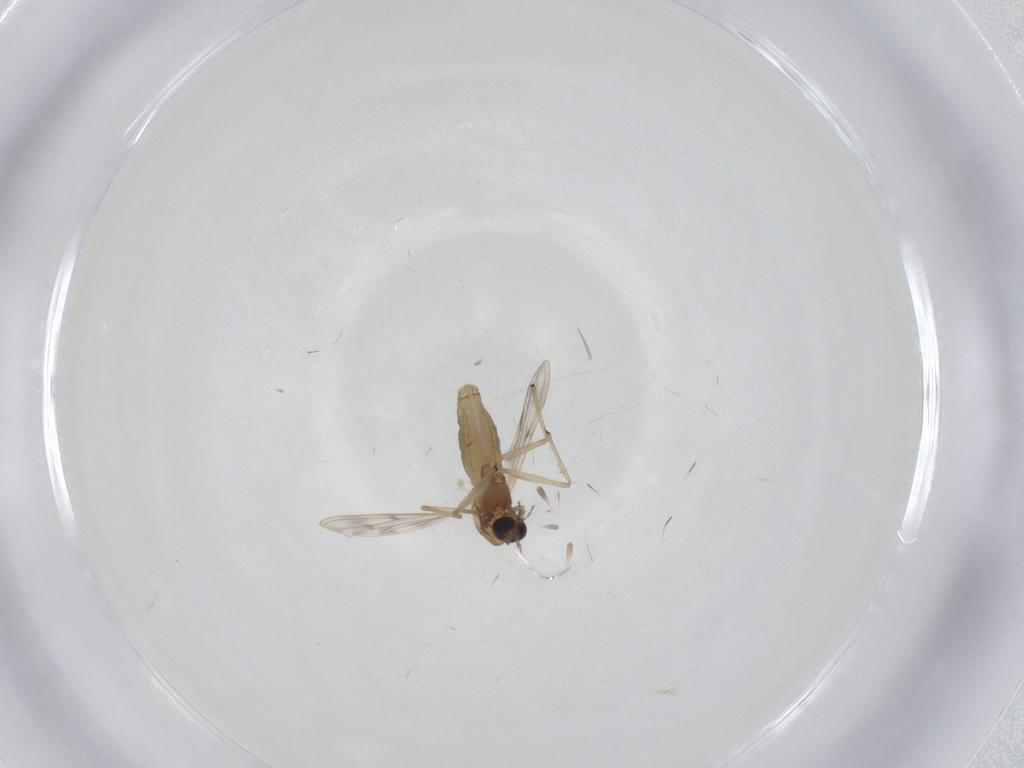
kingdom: Animalia
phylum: Arthropoda
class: Insecta
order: Diptera
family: Chironomidae
